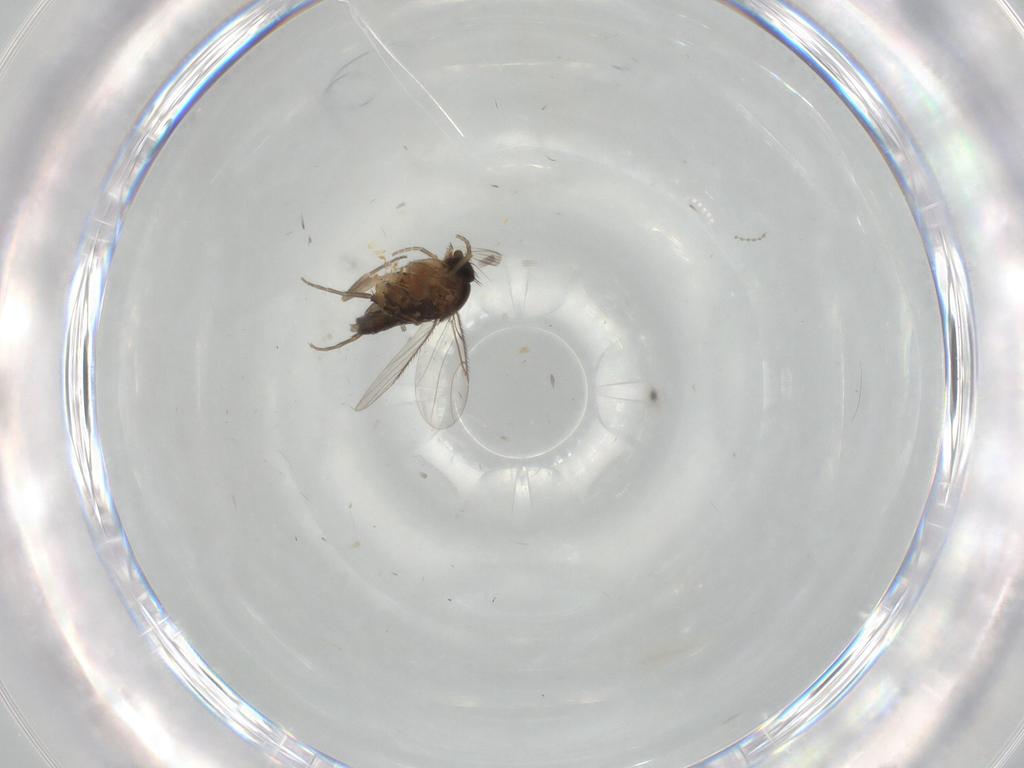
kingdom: Animalia
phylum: Arthropoda
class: Insecta
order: Diptera
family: Phoridae
